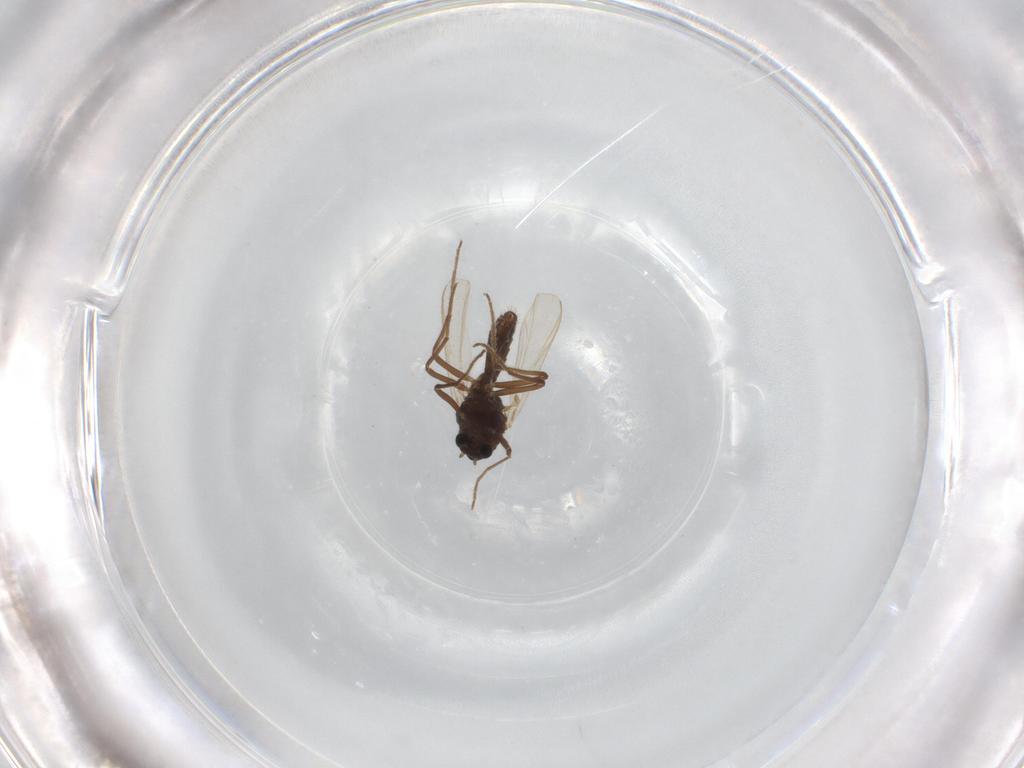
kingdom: Animalia
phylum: Arthropoda
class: Insecta
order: Diptera
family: Chironomidae
